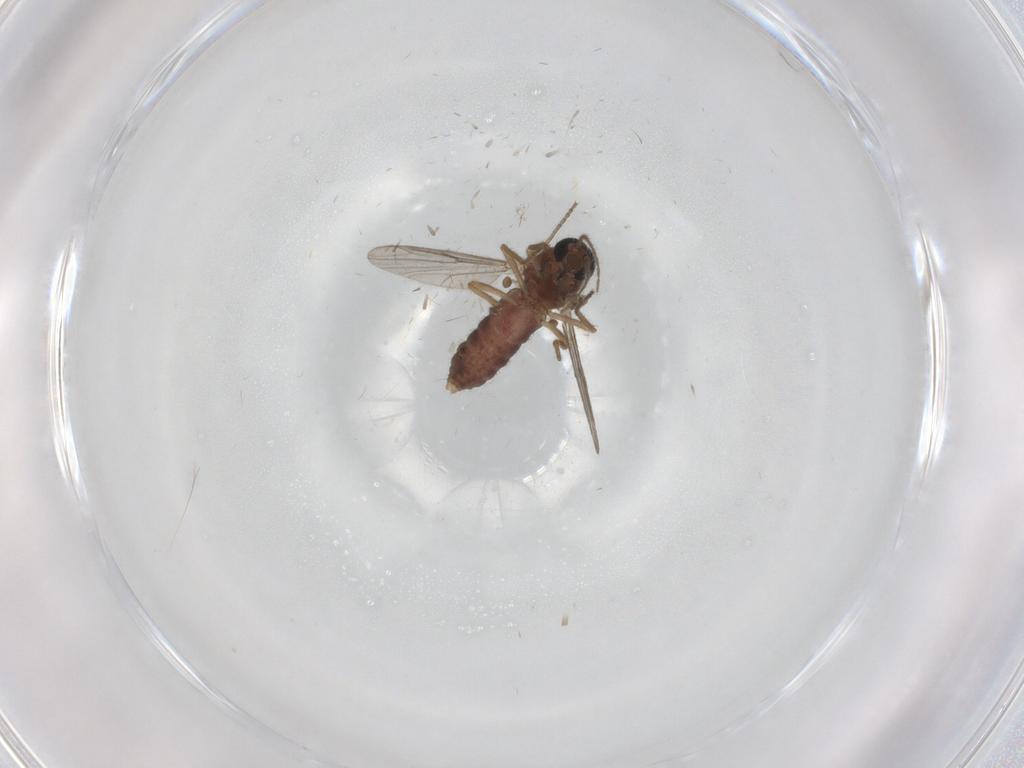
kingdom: Animalia
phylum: Arthropoda
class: Insecta
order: Diptera
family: Ceratopogonidae
